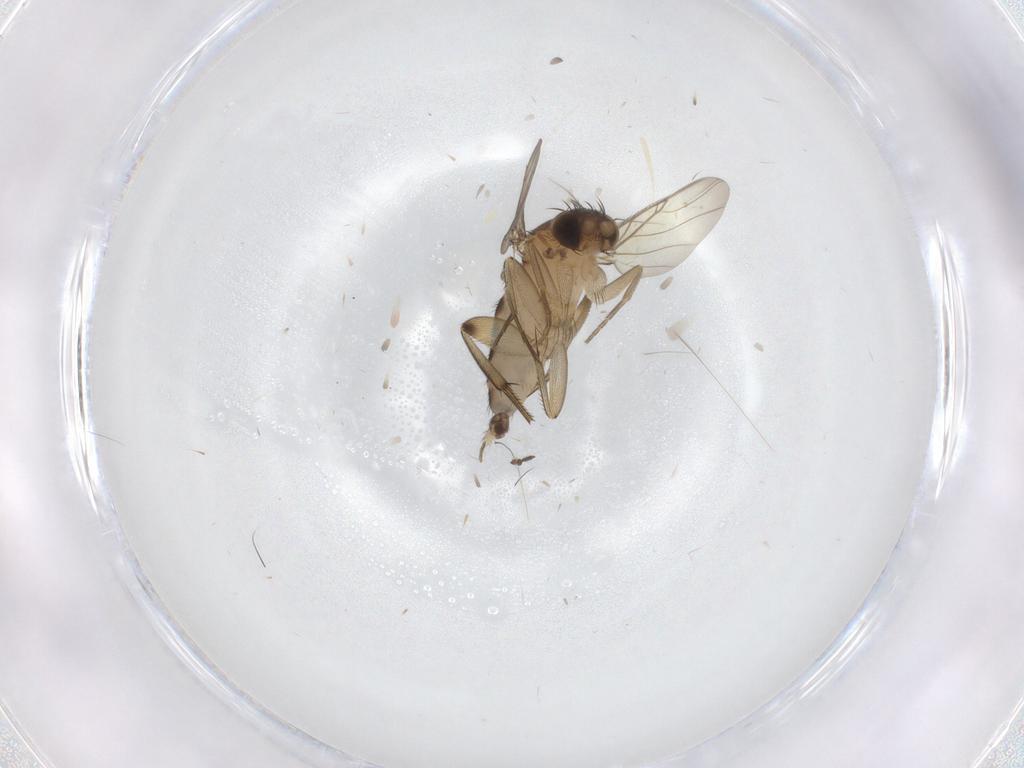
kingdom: Animalia
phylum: Arthropoda
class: Insecta
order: Diptera
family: Phoridae
